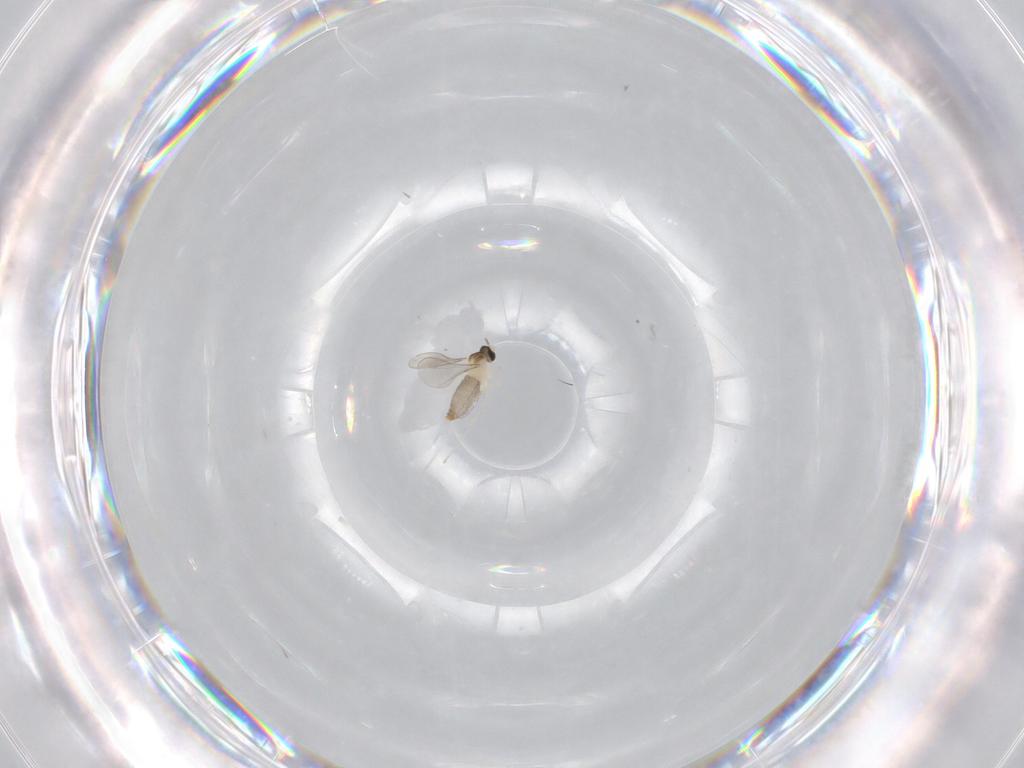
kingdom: Animalia
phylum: Arthropoda
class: Insecta
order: Diptera
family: Cecidomyiidae
